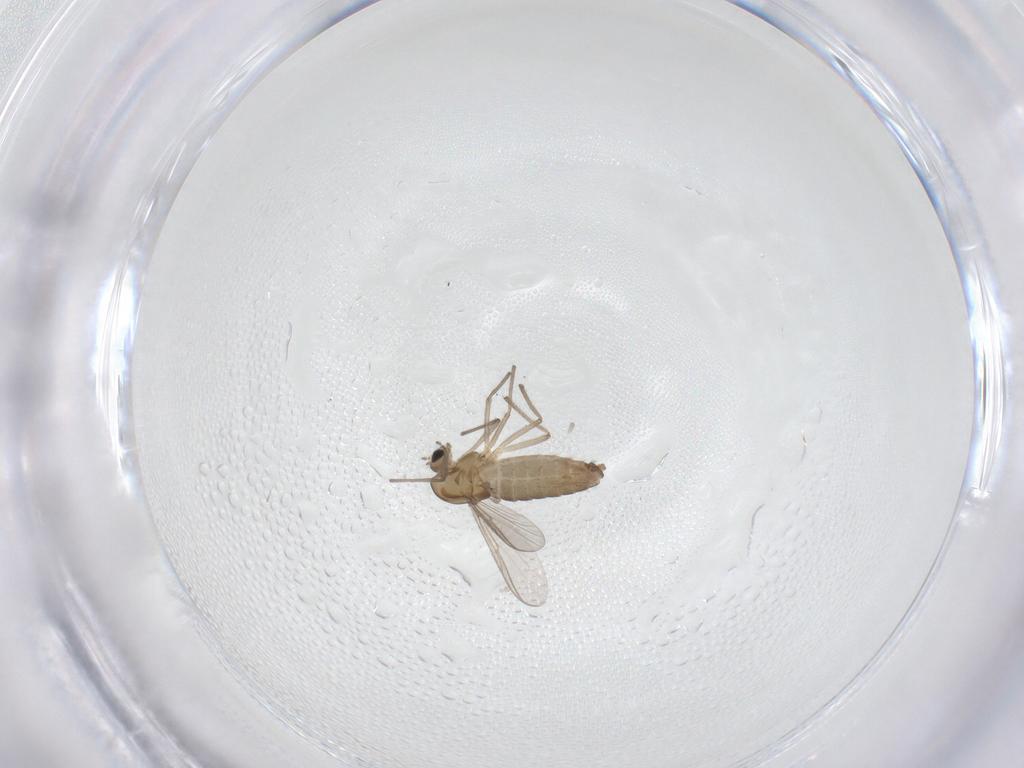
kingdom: Animalia
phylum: Arthropoda
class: Insecta
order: Diptera
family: Chironomidae
